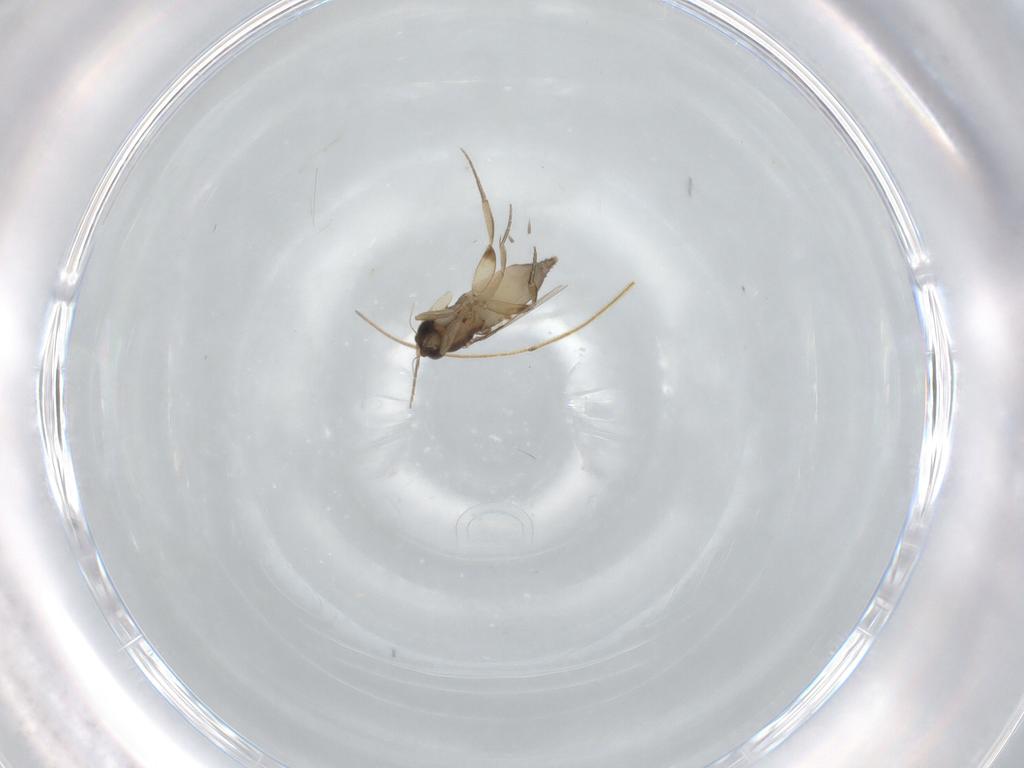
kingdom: Animalia
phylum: Arthropoda
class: Insecta
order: Diptera
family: Phoridae
